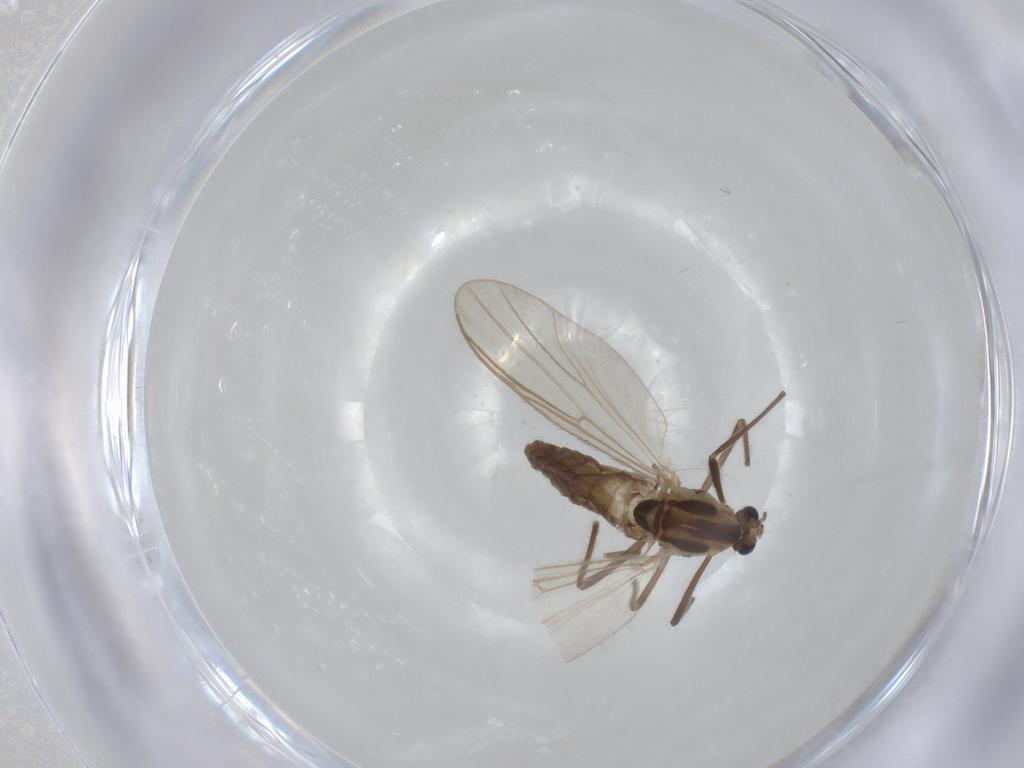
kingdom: Animalia
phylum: Arthropoda
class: Insecta
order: Diptera
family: Chironomidae
